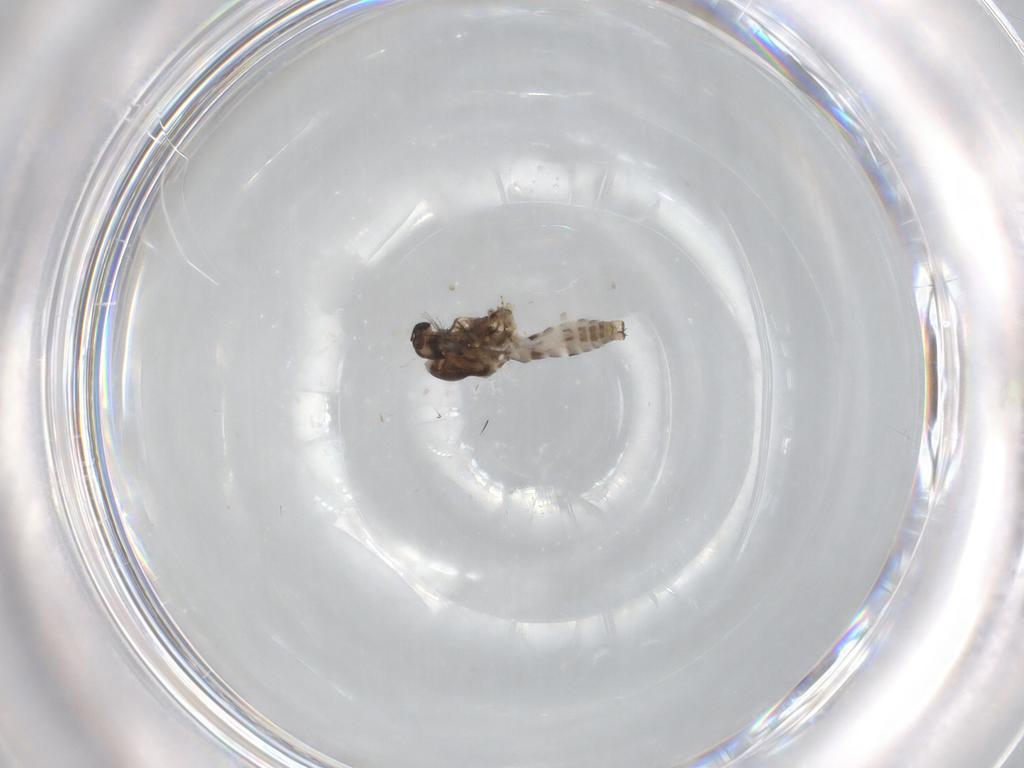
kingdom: Animalia
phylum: Arthropoda
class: Insecta
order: Diptera
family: Ceratopogonidae
